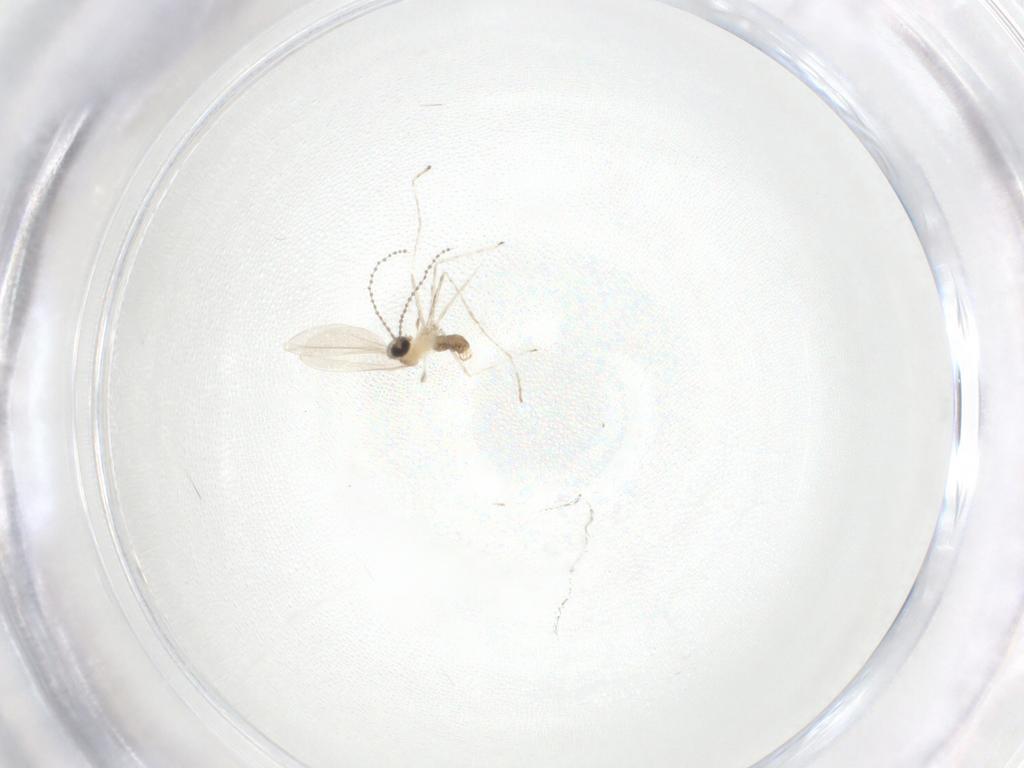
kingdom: Animalia
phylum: Arthropoda
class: Insecta
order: Diptera
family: Cecidomyiidae
